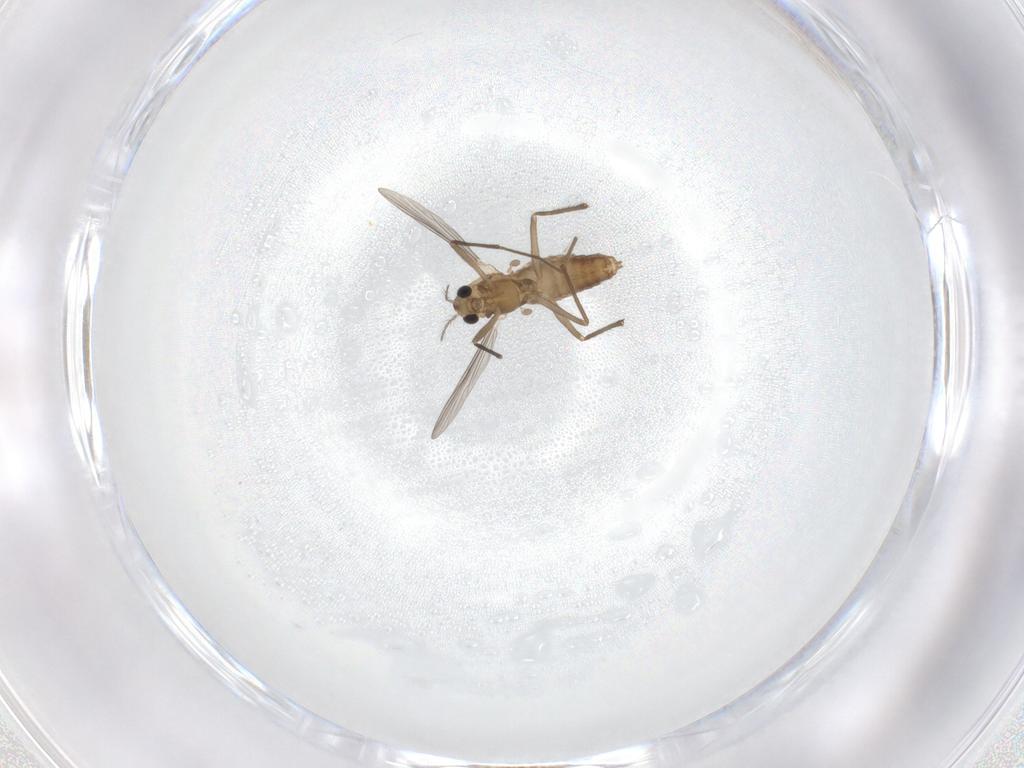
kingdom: Animalia
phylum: Arthropoda
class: Insecta
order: Diptera
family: Chironomidae
